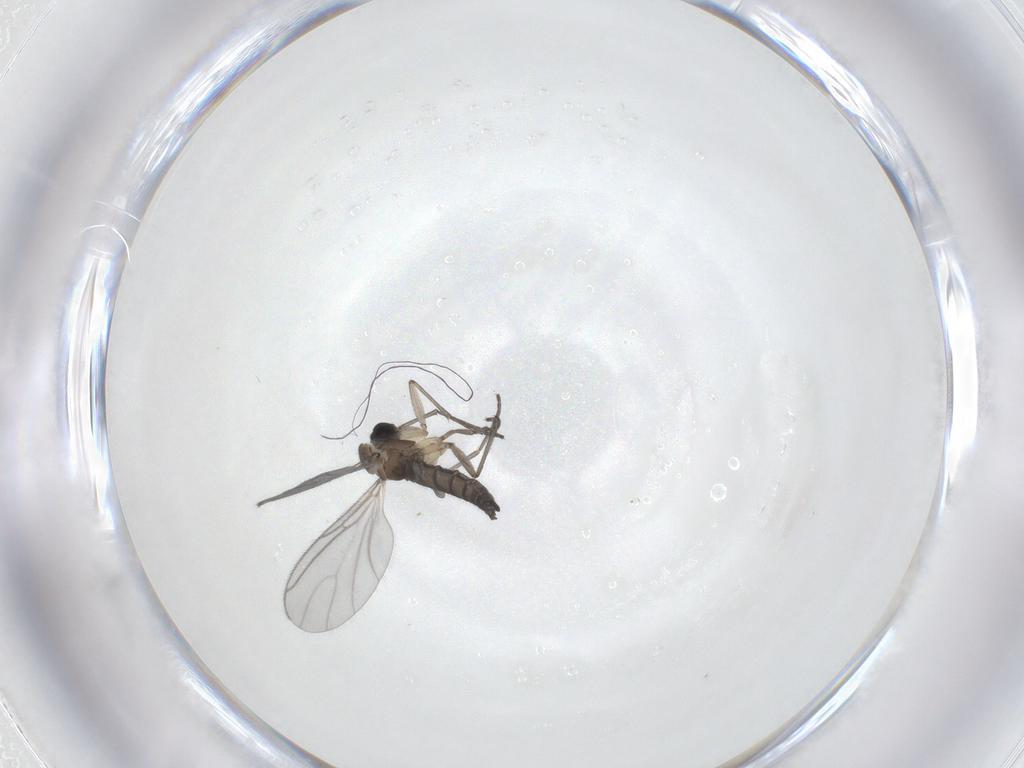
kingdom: Animalia
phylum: Arthropoda
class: Insecta
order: Diptera
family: Sciaridae
